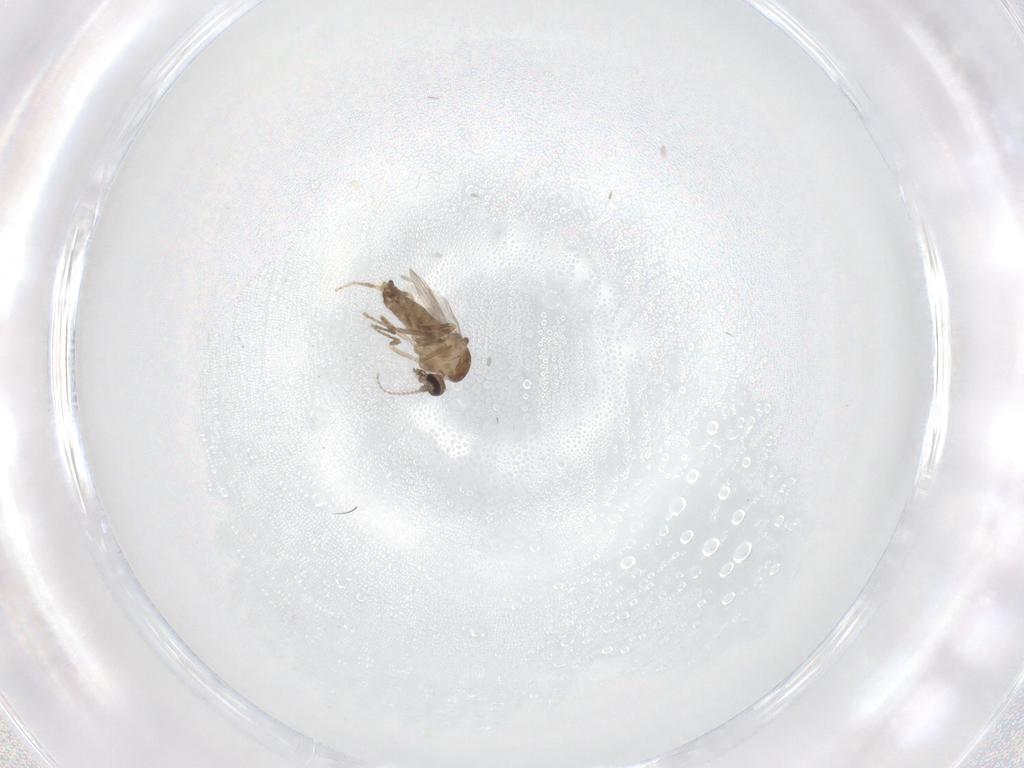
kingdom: Animalia
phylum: Arthropoda
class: Insecta
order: Diptera
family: Ceratopogonidae
